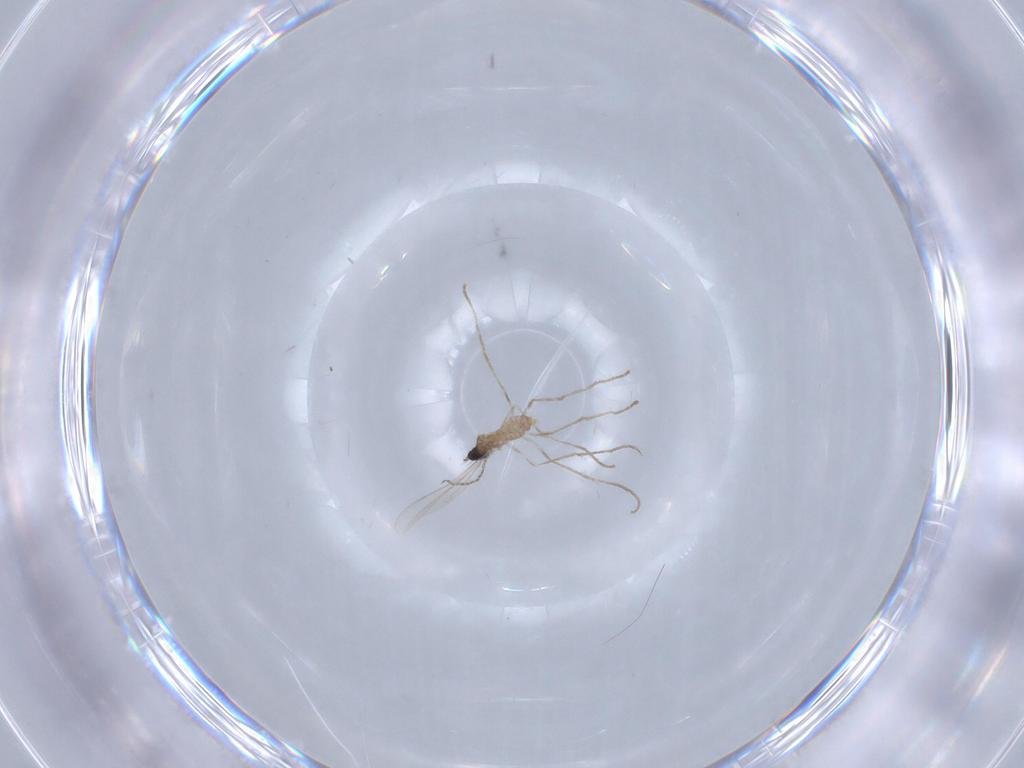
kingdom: Animalia
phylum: Arthropoda
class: Insecta
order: Diptera
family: Cecidomyiidae
